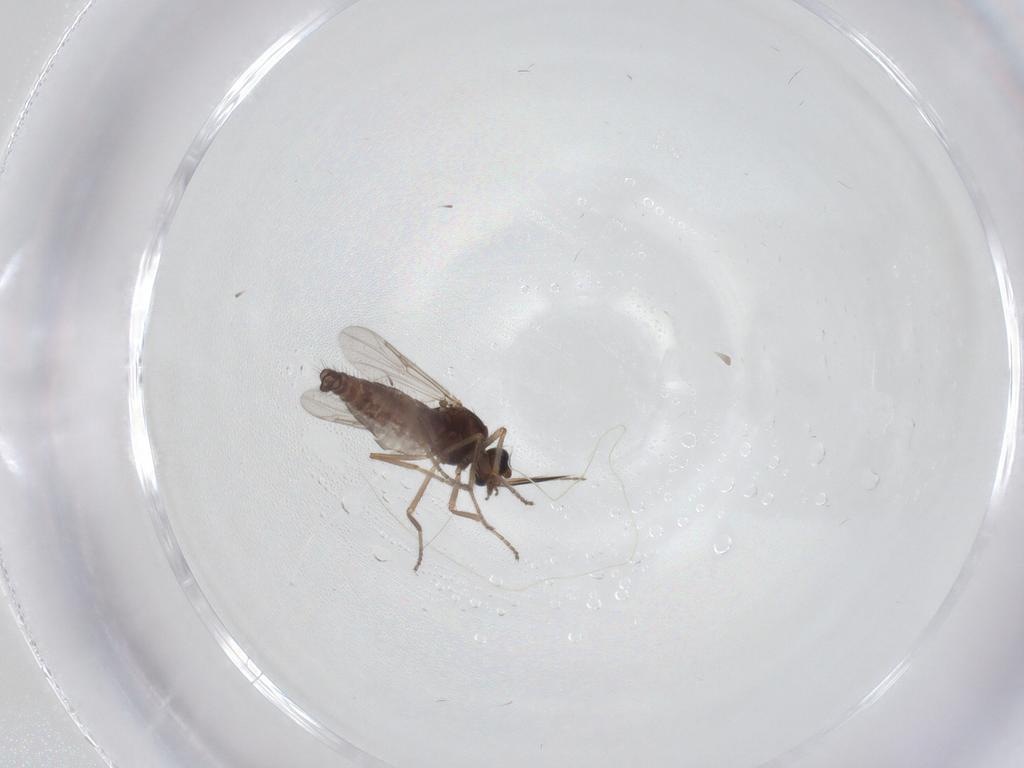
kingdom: Animalia
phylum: Arthropoda
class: Insecta
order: Diptera
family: Ceratopogonidae
